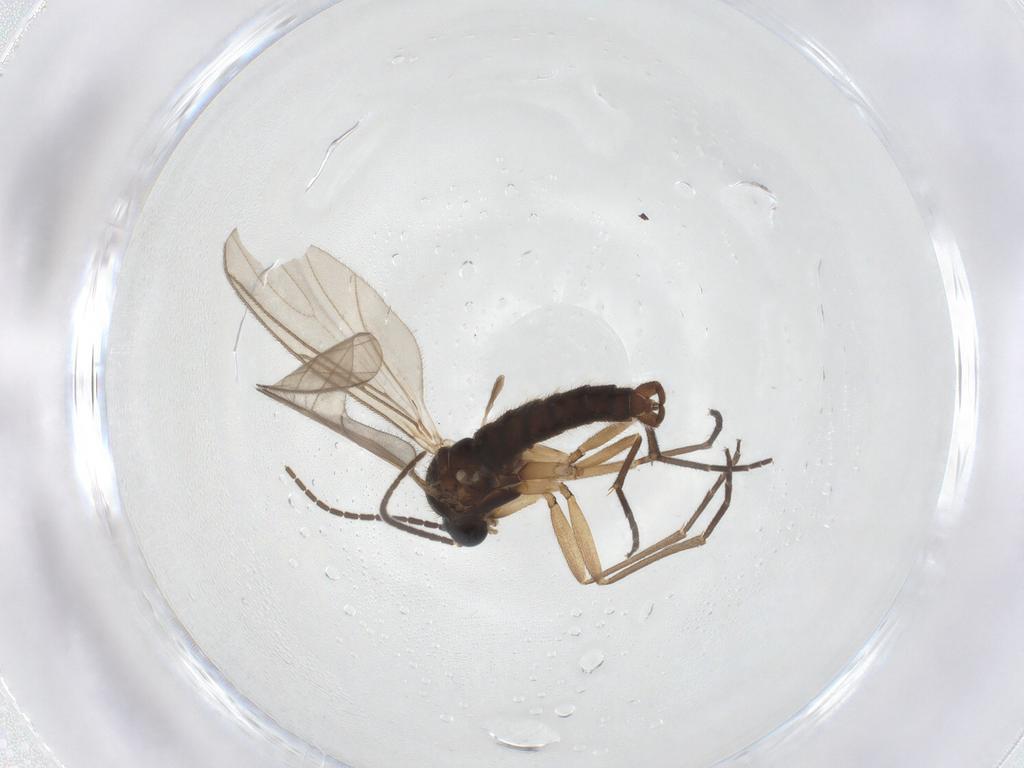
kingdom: Animalia
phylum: Arthropoda
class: Insecta
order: Diptera
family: Sciaridae
